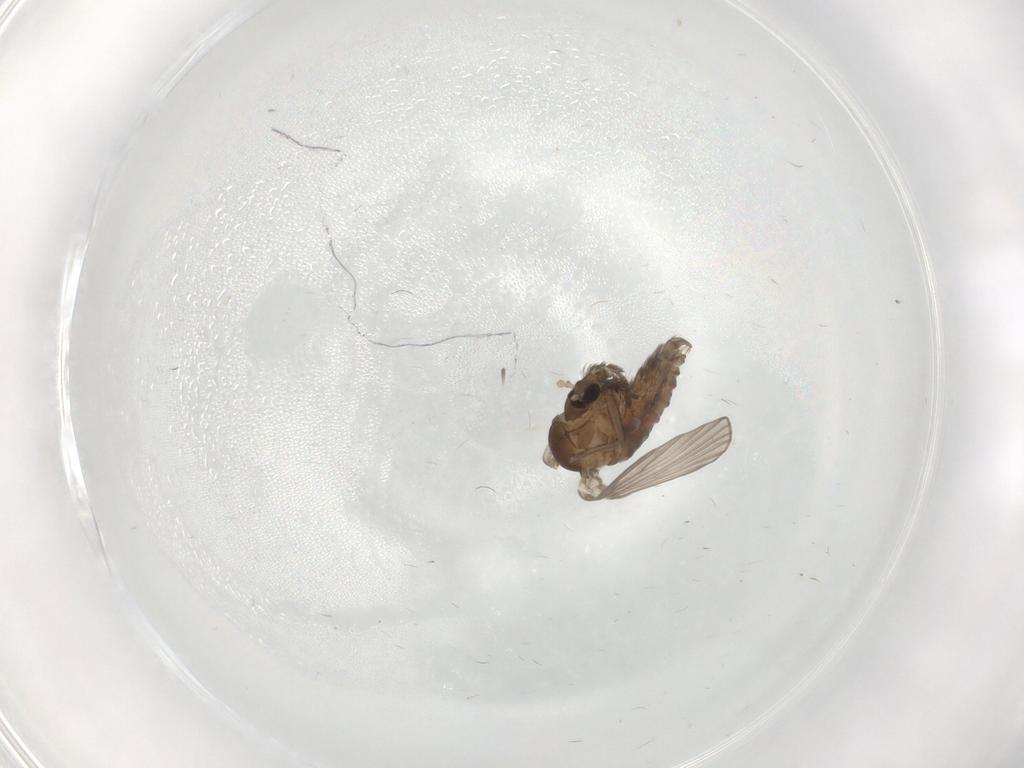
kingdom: Animalia
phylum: Arthropoda
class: Insecta
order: Diptera
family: Psychodidae
